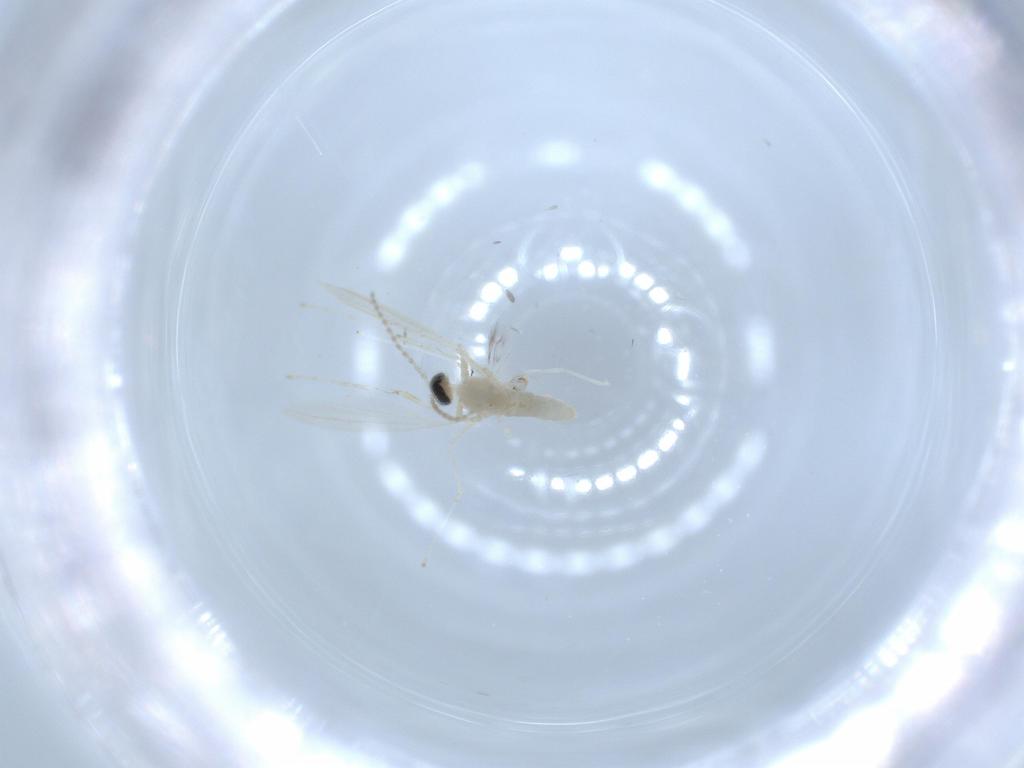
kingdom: Animalia
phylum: Arthropoda
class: Insecta
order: Diptera
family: Cecidomyiidae
